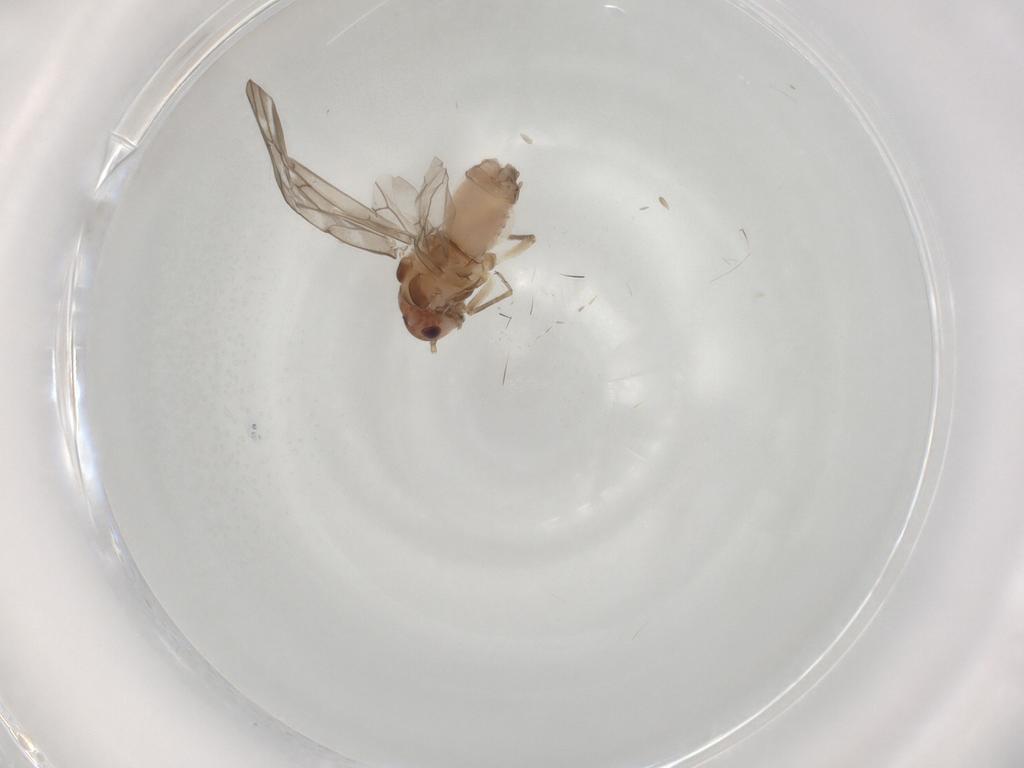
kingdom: Animalia
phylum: Arthropoda
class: Insecta
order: Psocodea
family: Peripsocidae
